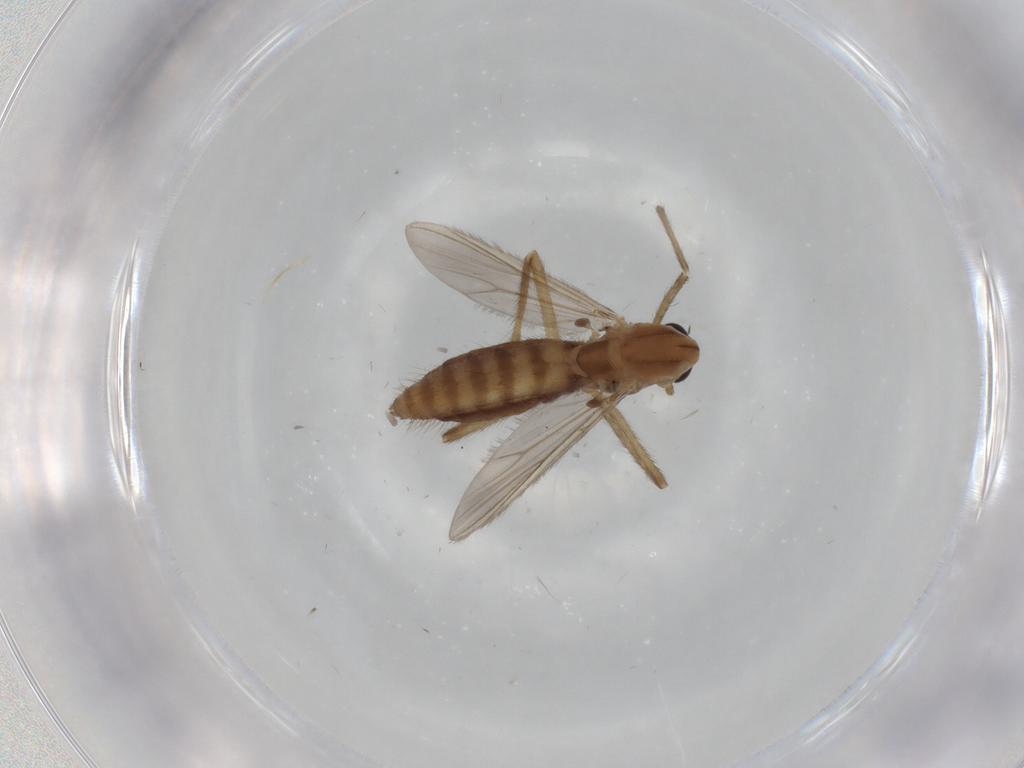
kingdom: Animalia
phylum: Arthropoda
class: Insecta
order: Diptera
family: Chironomidae
